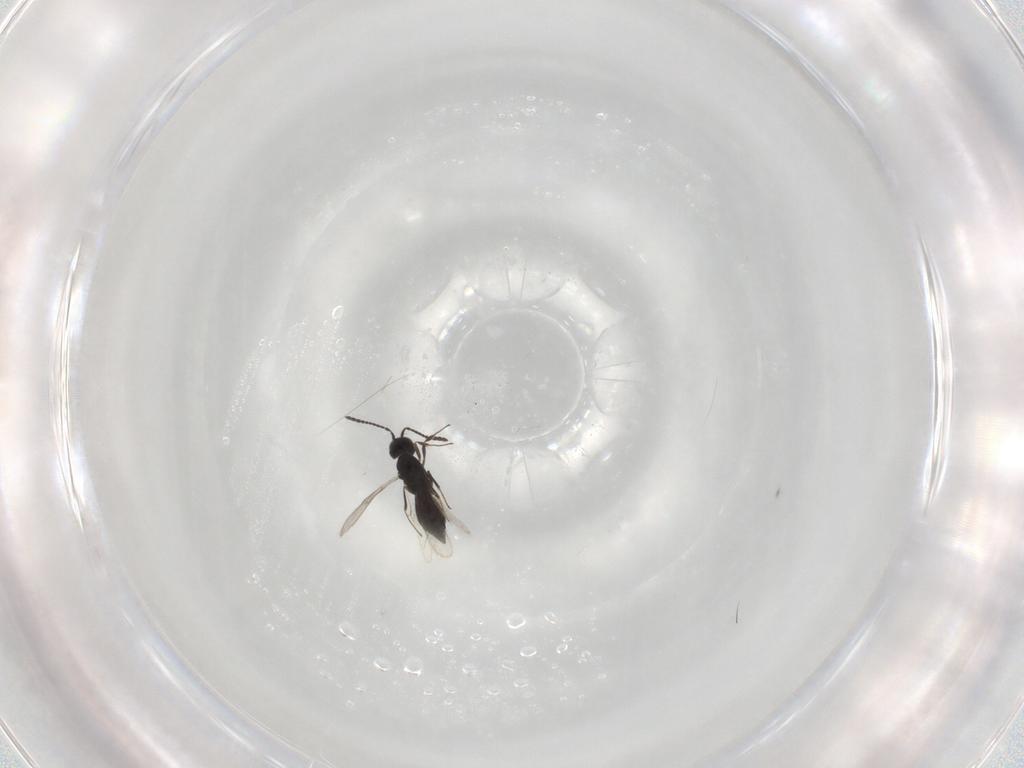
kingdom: Animalia
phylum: Arthropoda
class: Insecta
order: Hymenoptera
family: Scelionidae
